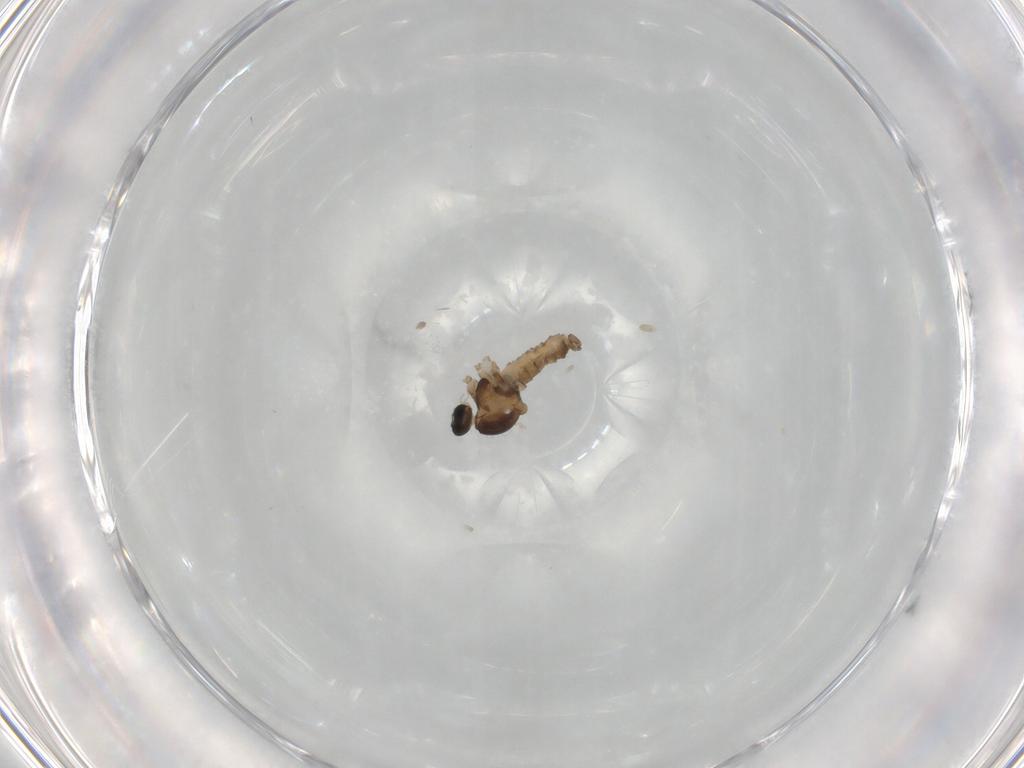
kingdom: Animalia
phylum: Arthropoda
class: Insecta
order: Diptera
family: Cecidomyiidae
